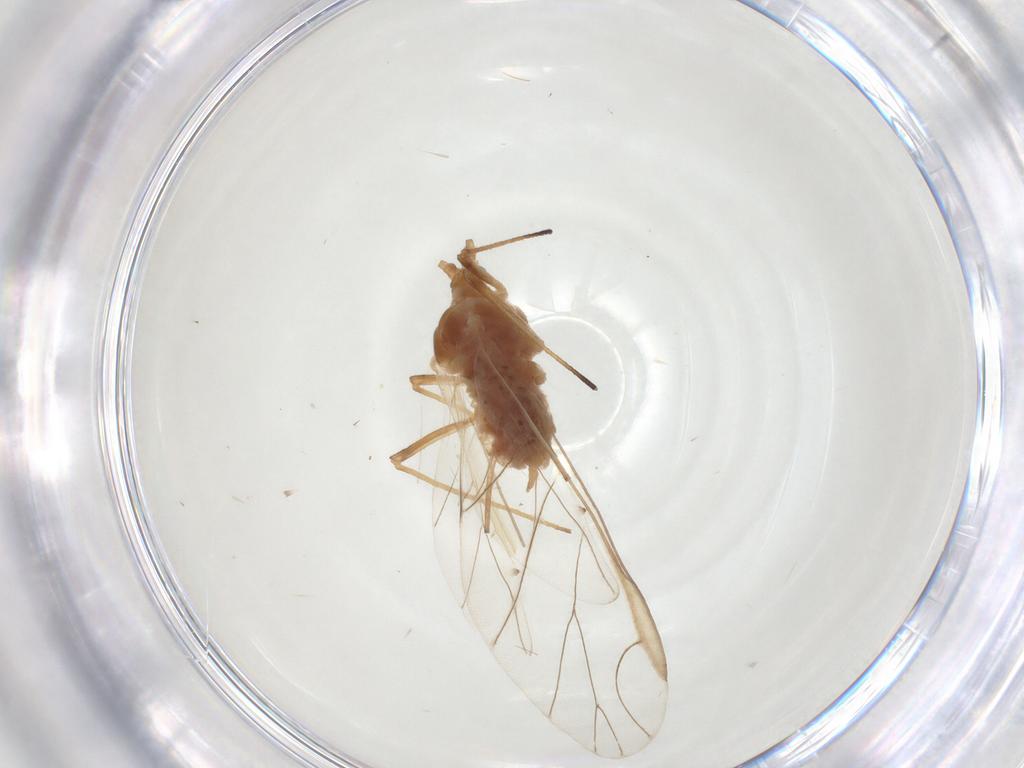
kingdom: Animalia
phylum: Arthropoda
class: Insecta
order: Hemiptera
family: Aphididae
